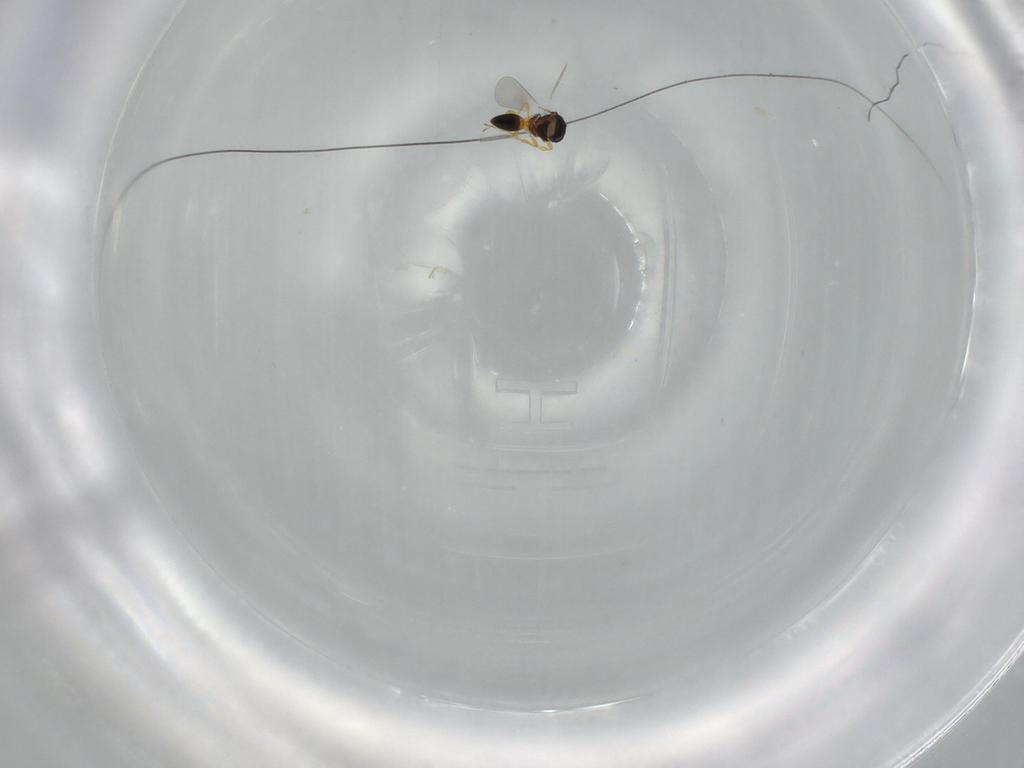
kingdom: Animalia
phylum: Arthropoda
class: Insecta
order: Hymenoptera
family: Platygastridae
